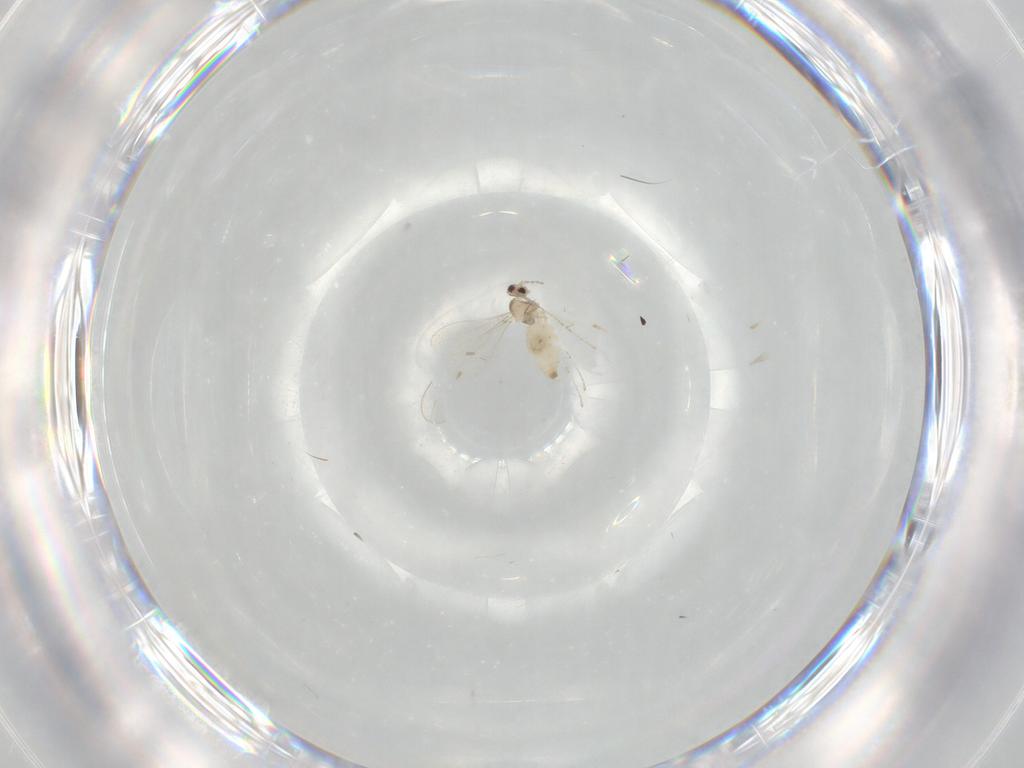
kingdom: Animalia
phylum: Arthropoda
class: Insecta
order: Diptera
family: Cecidomyiidae
